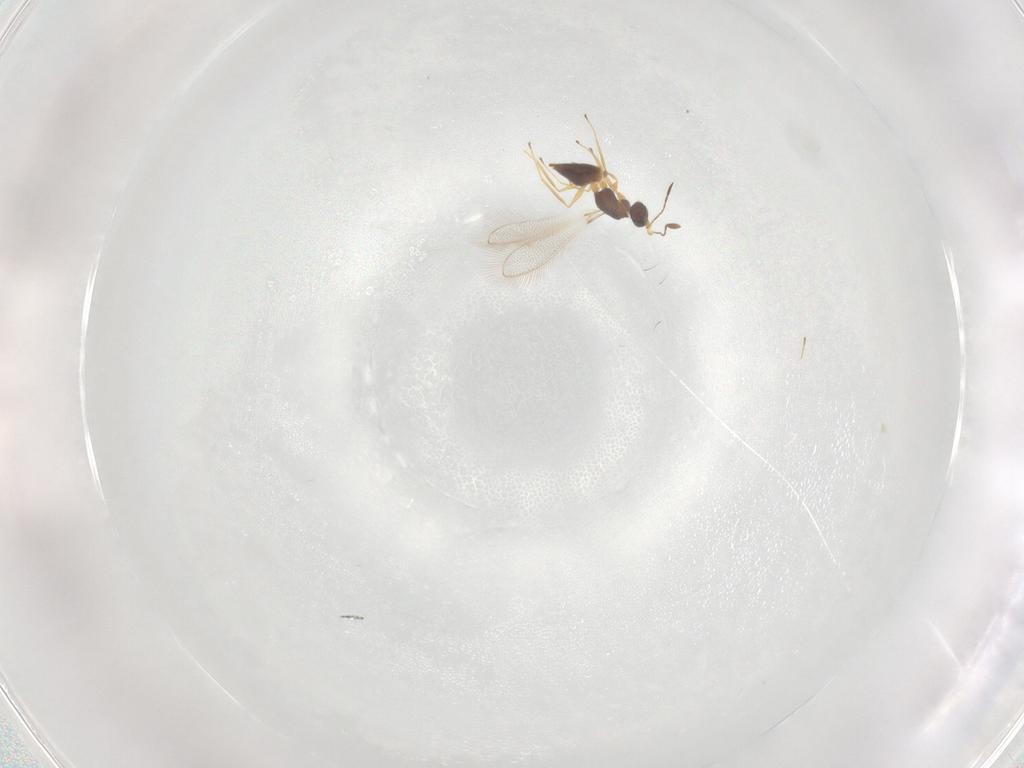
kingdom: Animalia
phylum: Arthropoda
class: Insecta
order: Hymenoptera
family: Mymaridae
